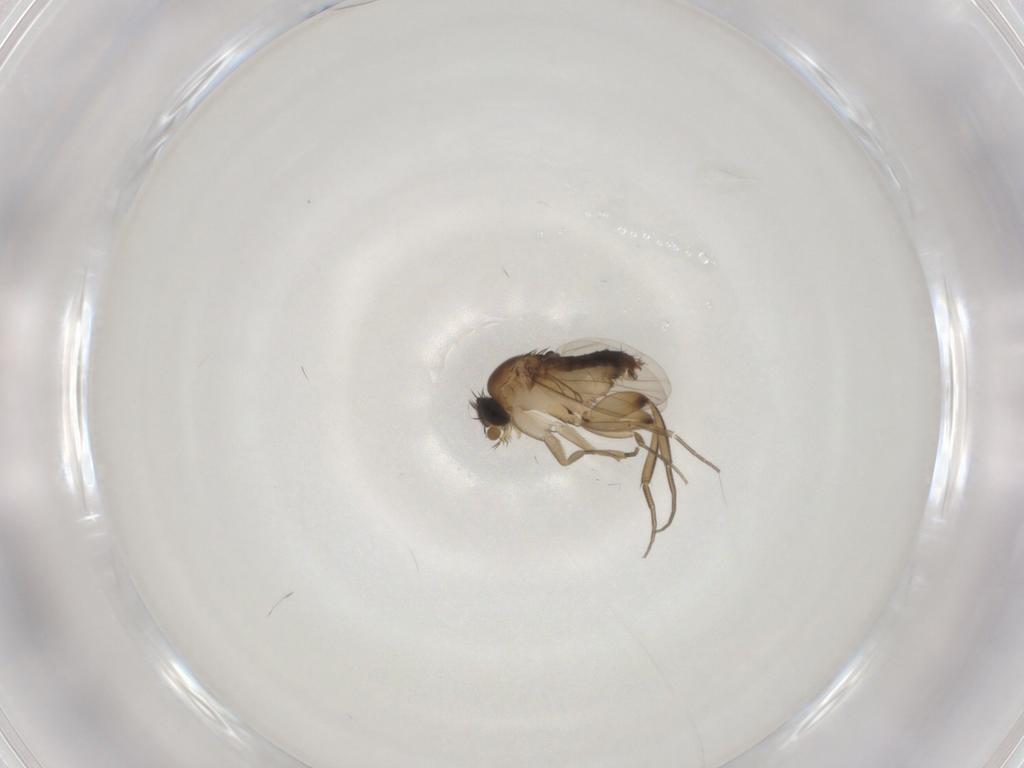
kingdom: Animalia
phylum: Arthropoda
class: Insecta
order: Diptera
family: Phoridae
